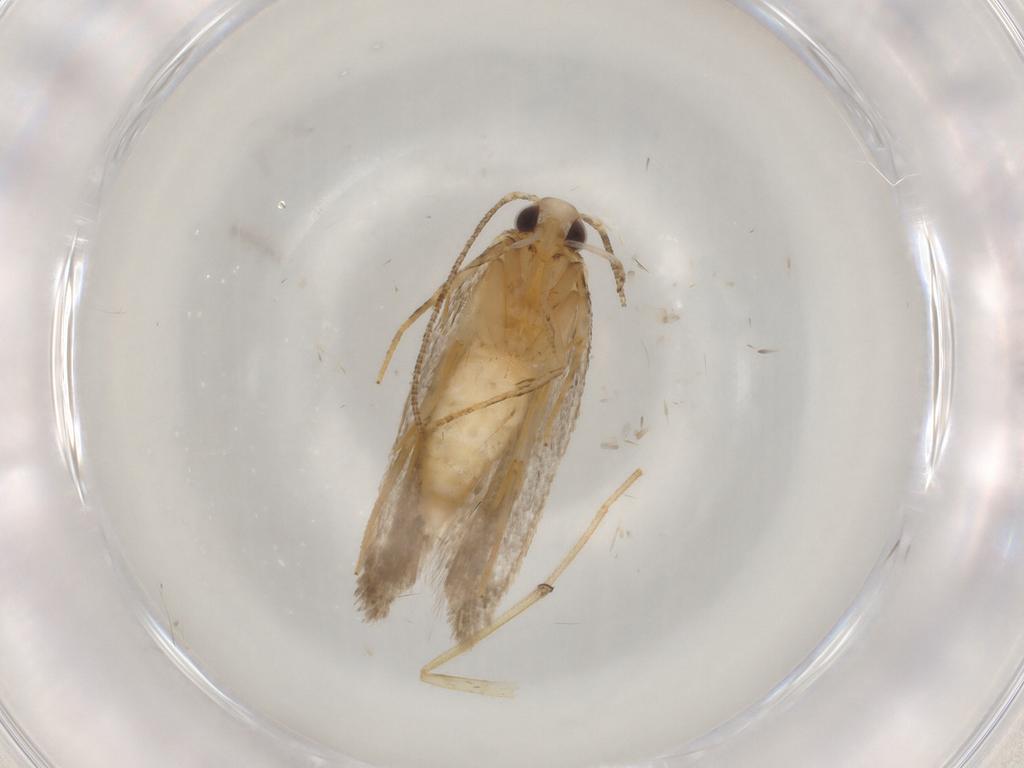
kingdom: Animalia
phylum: Arthropoda
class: Insecta
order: Lepidoptera
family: Autostichidae
